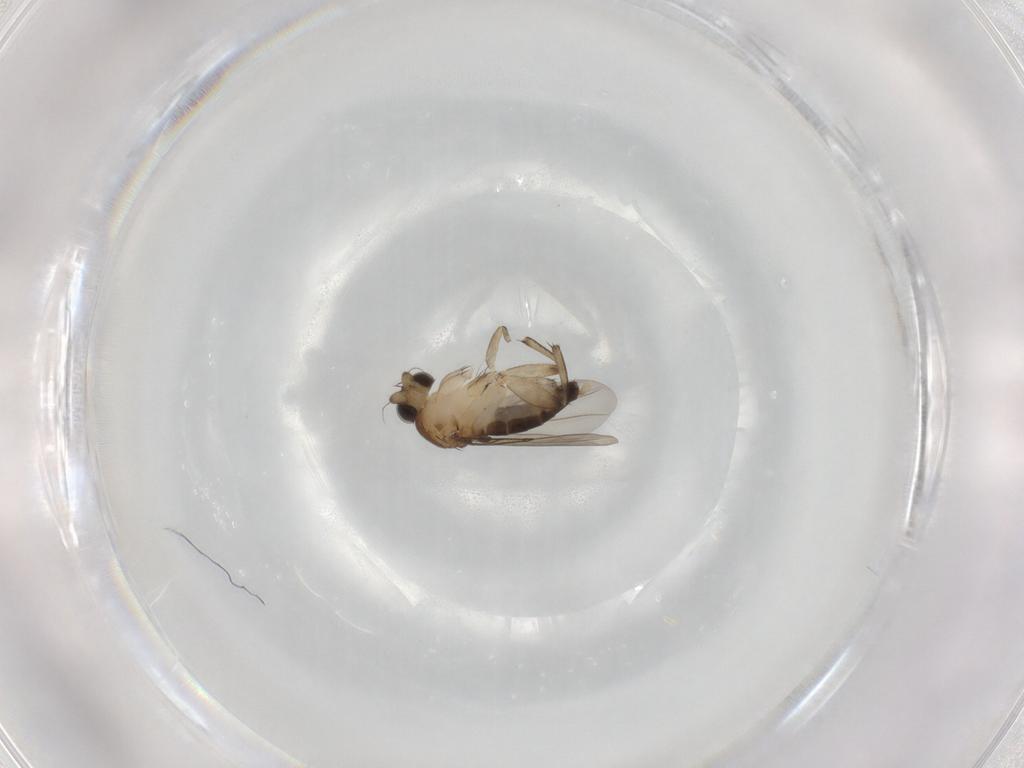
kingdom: Animalia
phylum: Arthropoda
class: Insecta
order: Diptera
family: Phoridae
